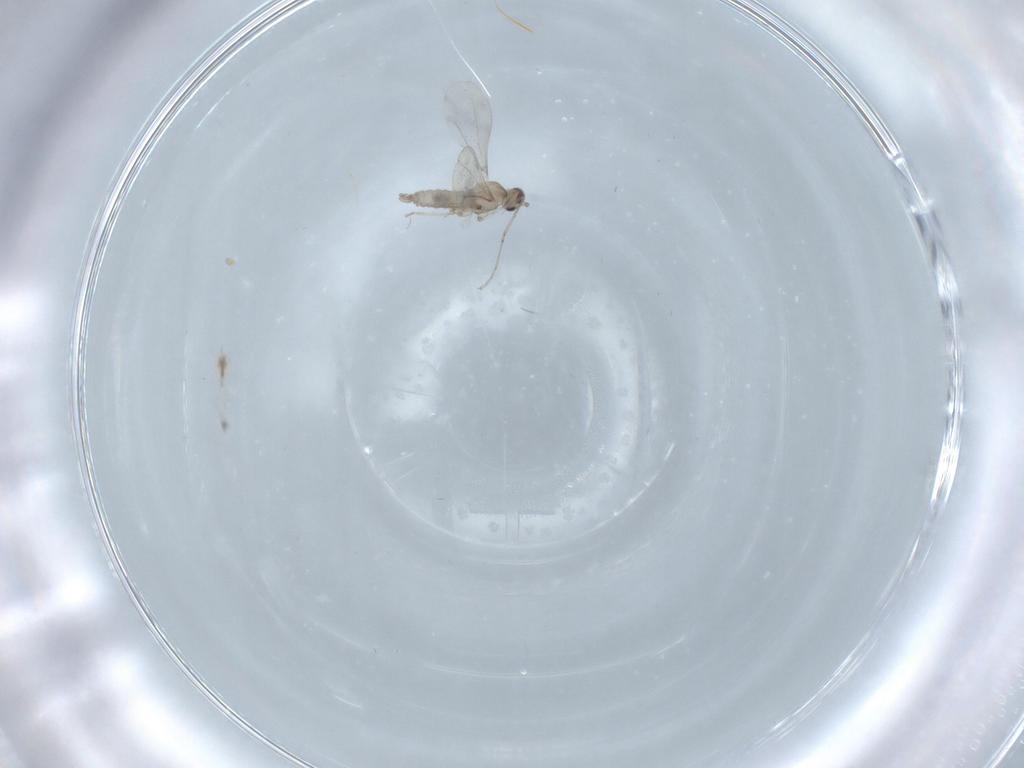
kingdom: Animalia
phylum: Arthropoda
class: Insecta
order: Diptera
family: Cecidomyiidae
